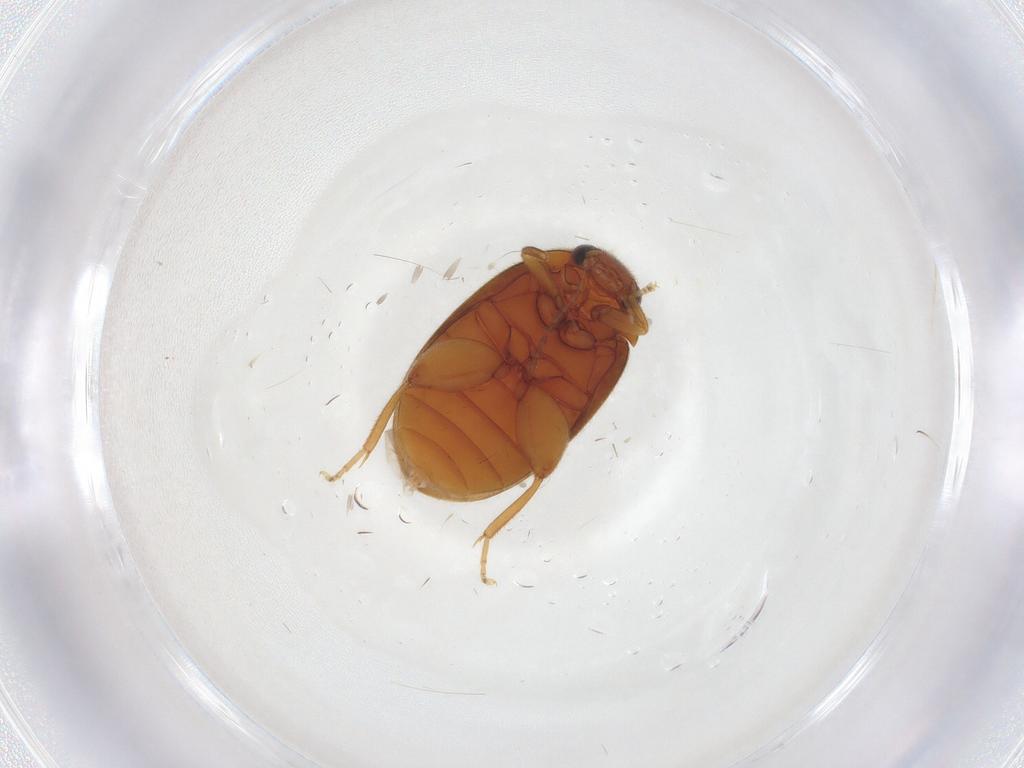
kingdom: Animalia
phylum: Arthropoda
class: Insecta
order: Coleoptera
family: Scirtidae
